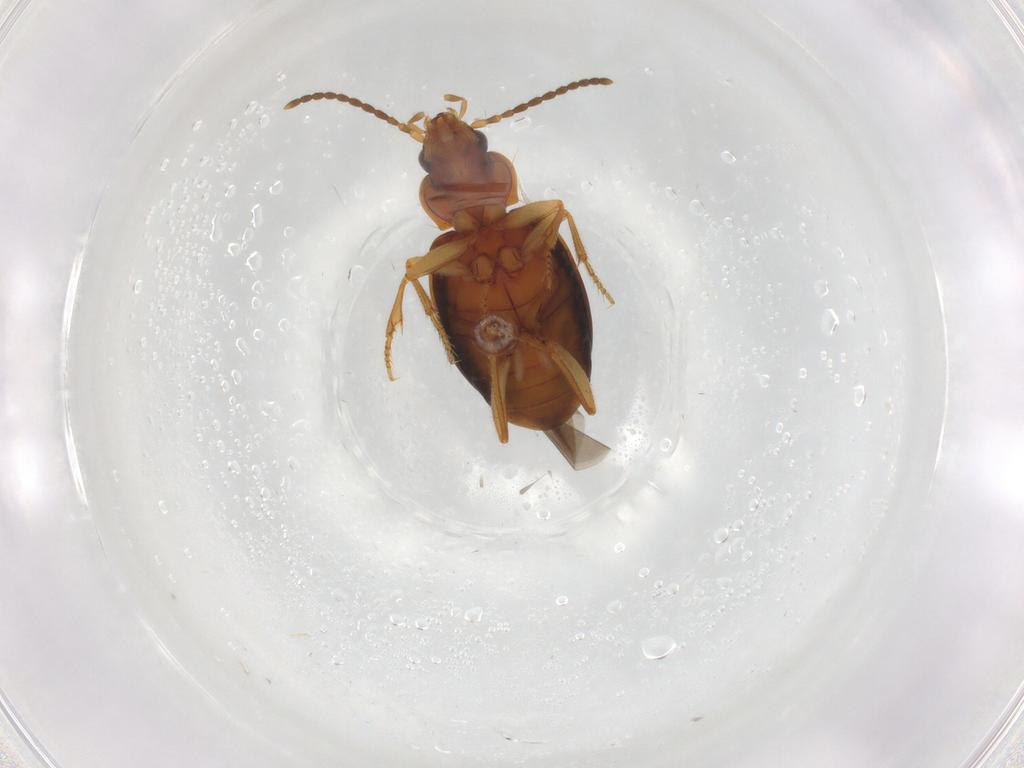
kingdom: Animalia
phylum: Arthropoda
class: Insecta
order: Coleoptera
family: Carabidae
